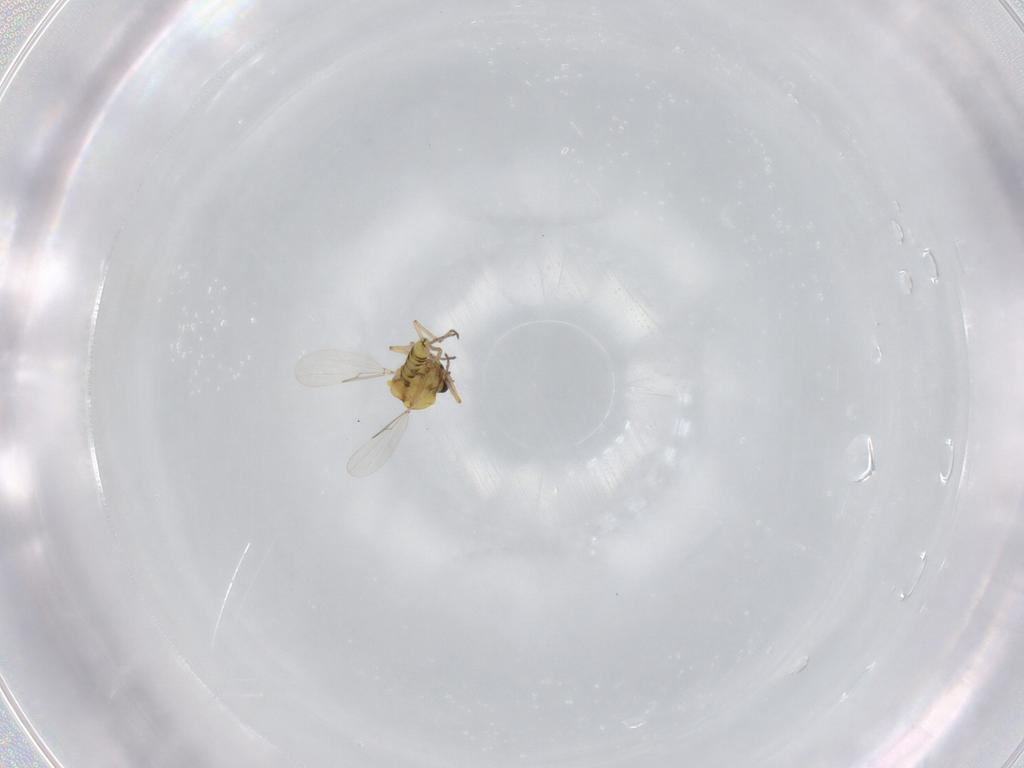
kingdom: Animalia
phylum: Arthropoda
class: Insecta
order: Diptera
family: Ceratopogonidae
